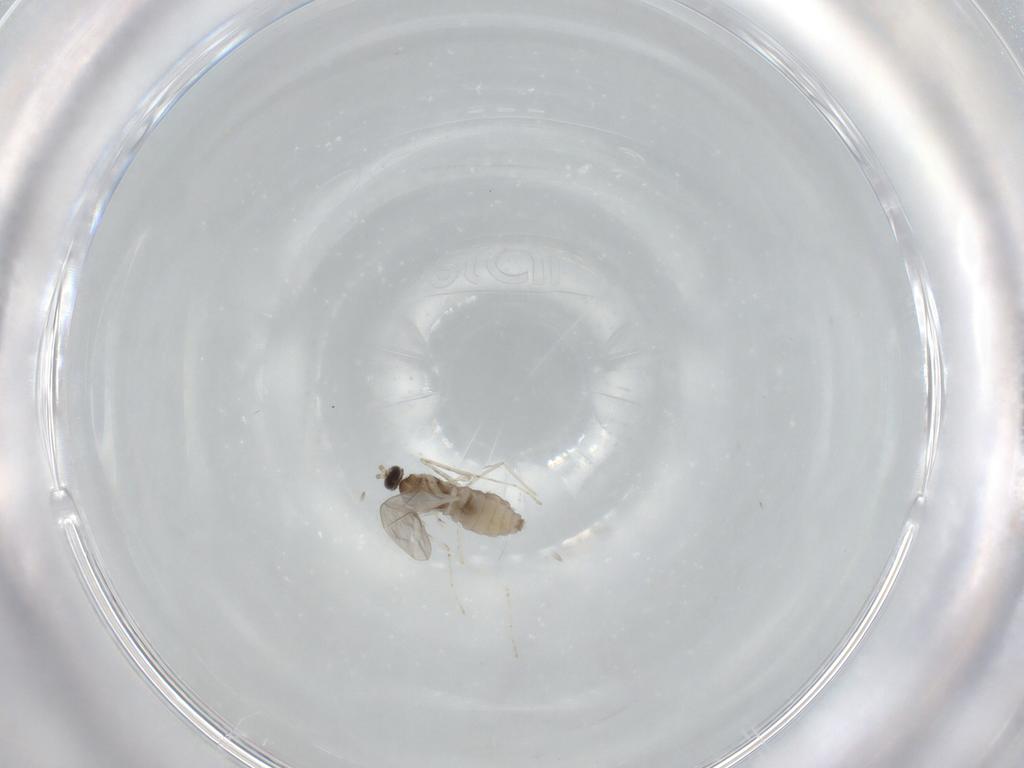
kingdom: Animalia
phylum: Arthropoda
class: Insecta
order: Diptera
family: Cecidomyiidae
